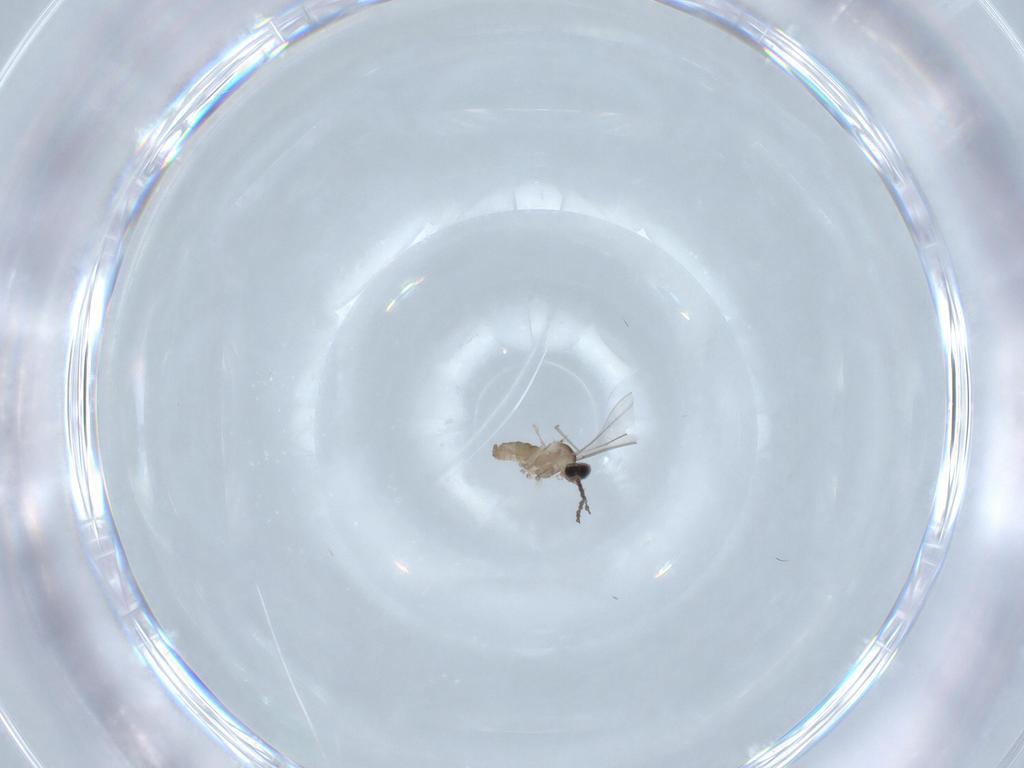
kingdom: Animalia
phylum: Arthropoda
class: Insecta
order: Diptera
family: Cecidomyiidae
